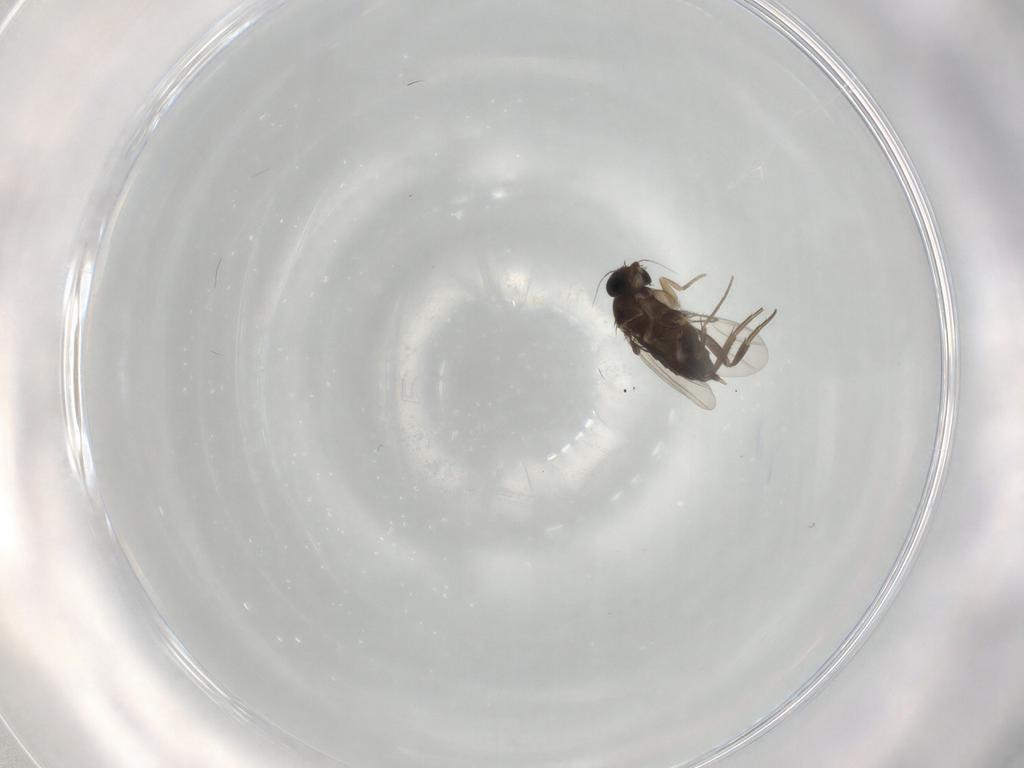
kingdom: Animalia
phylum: Arthropoda
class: Insecta
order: Diptera
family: Phoridae
